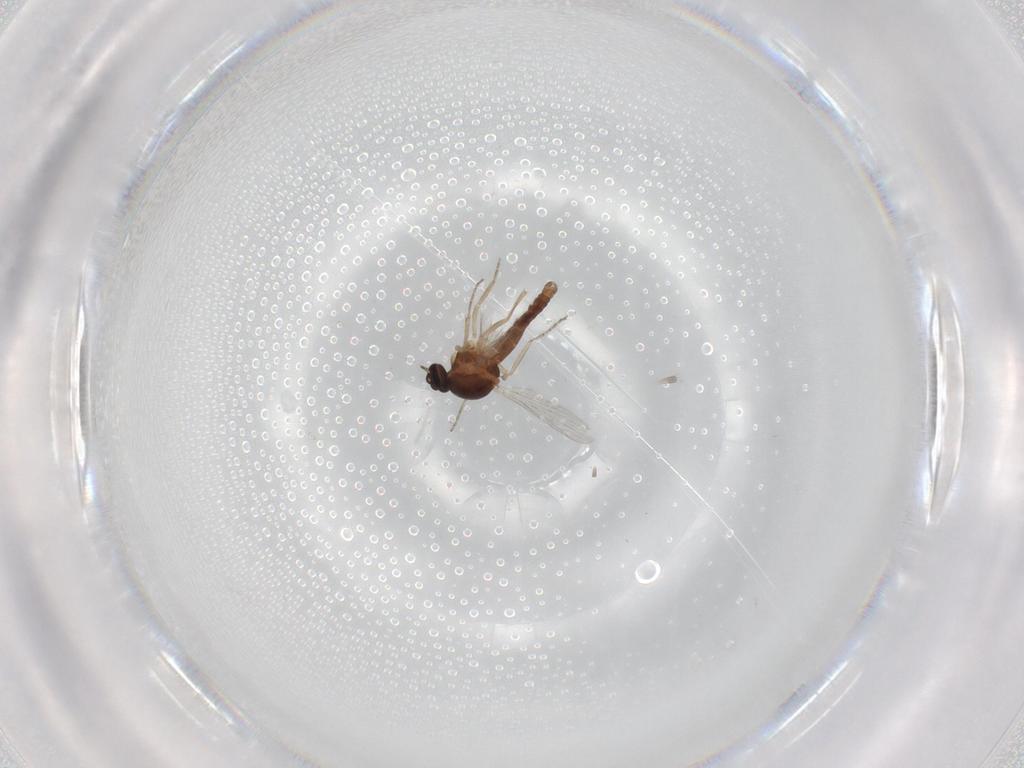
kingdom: Animalia
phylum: Arthropoda
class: Insecta
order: Diptera
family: Ceratopogonidae
